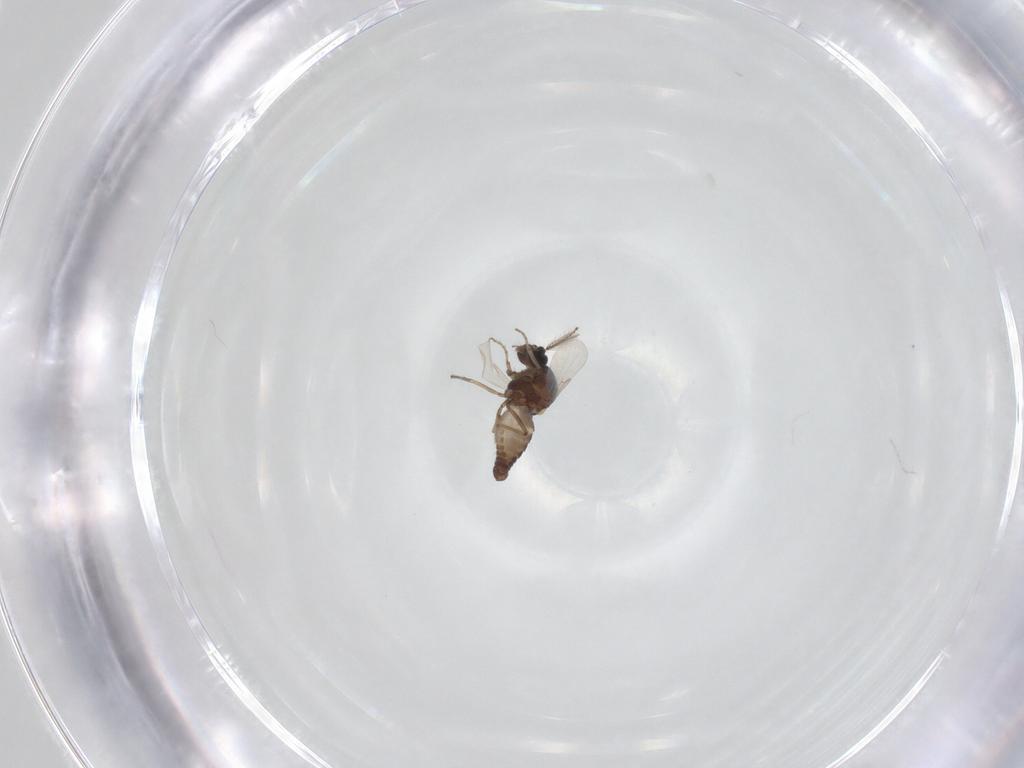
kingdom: Animalia
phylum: Arthropoda
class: Insecta
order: Diptera
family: Ceratopogonidae
